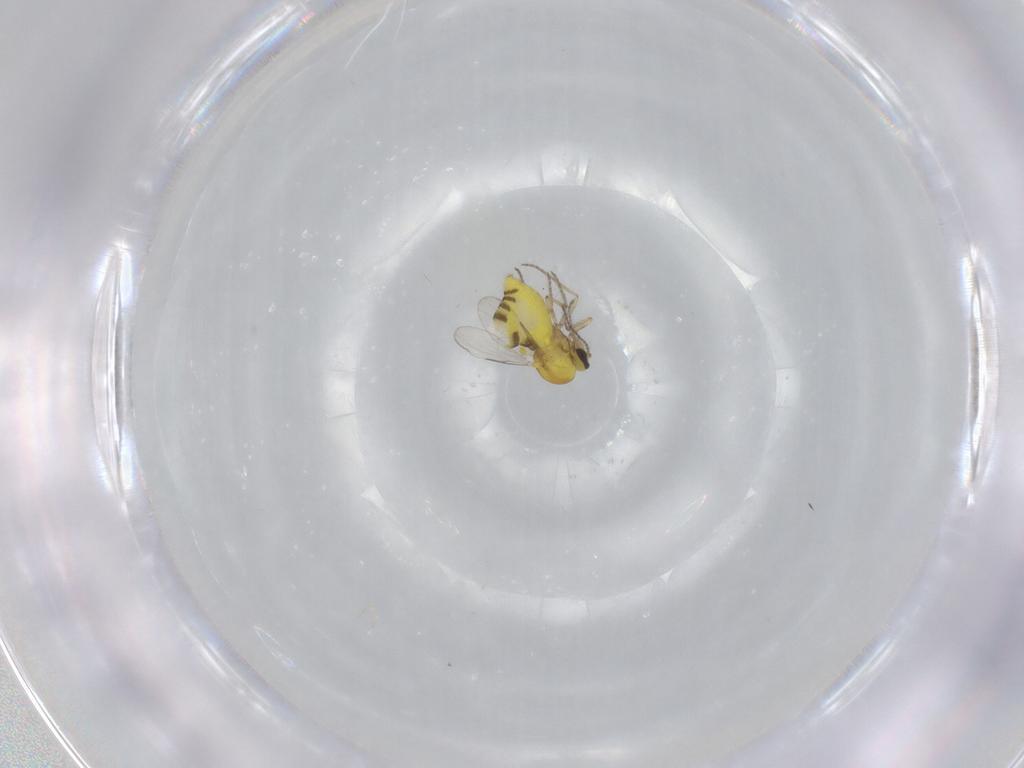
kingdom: Animalia
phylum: Arthropoda
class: Insecta
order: Diptera
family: Ceratopogonidae
